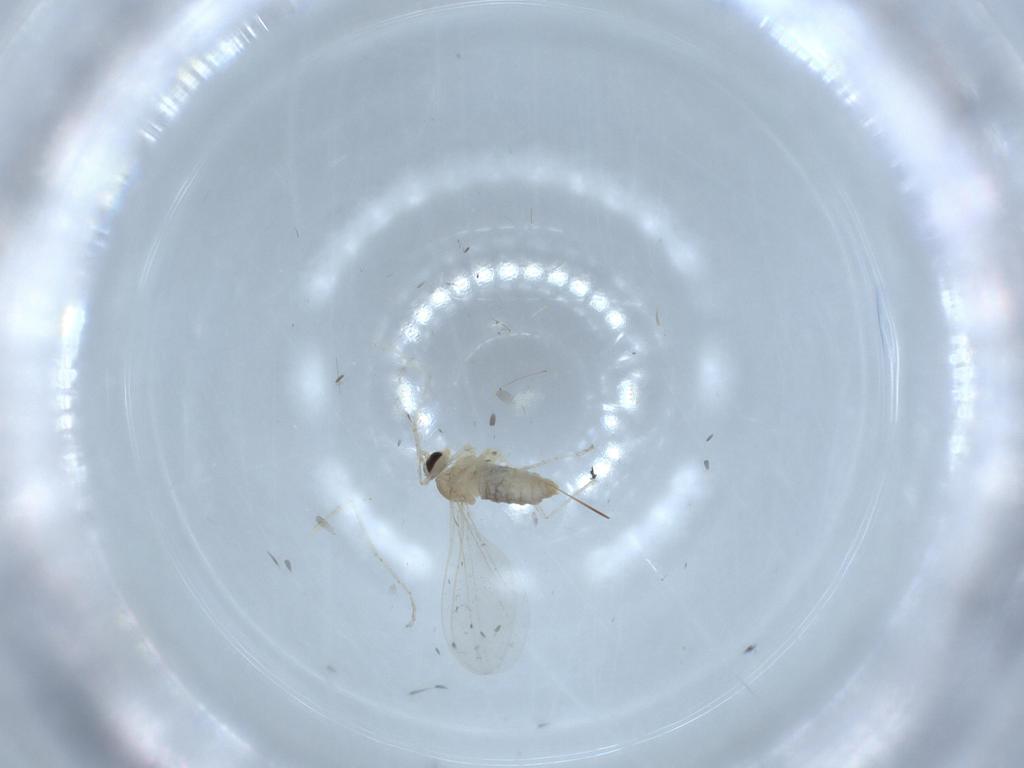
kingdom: Animalia
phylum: Arthropoda
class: Insecta
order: Diptera
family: Cecidomyiidae
